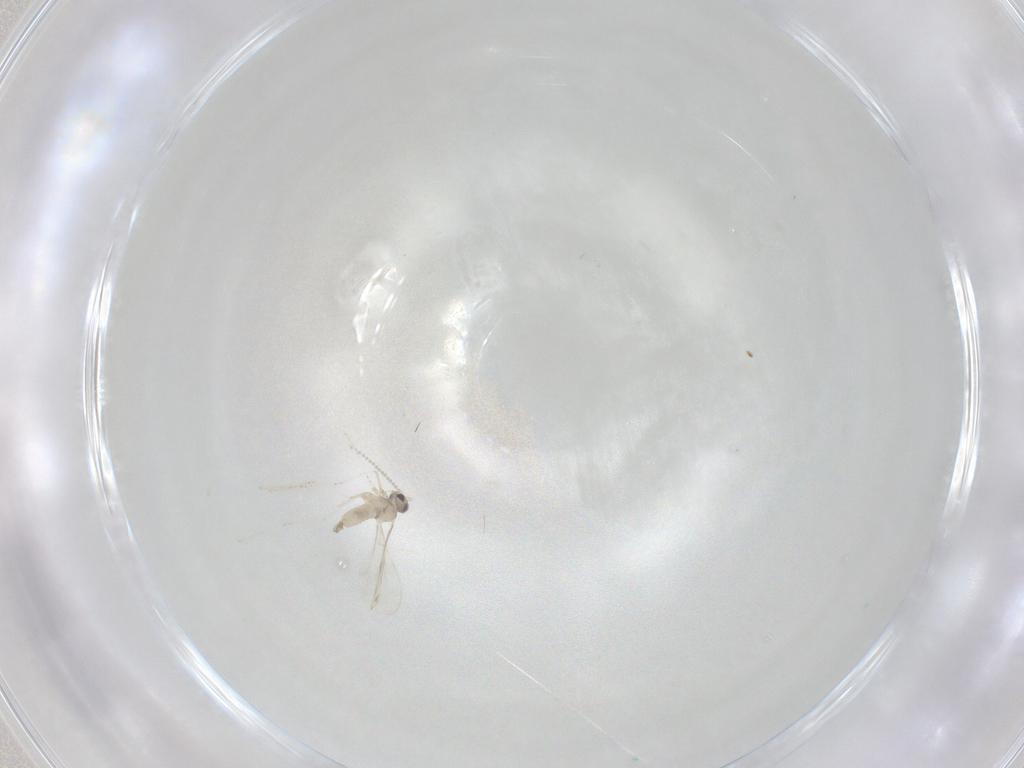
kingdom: Animalia
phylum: Arthropoda
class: Insecta
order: Diptera
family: Cecidomyiidae
